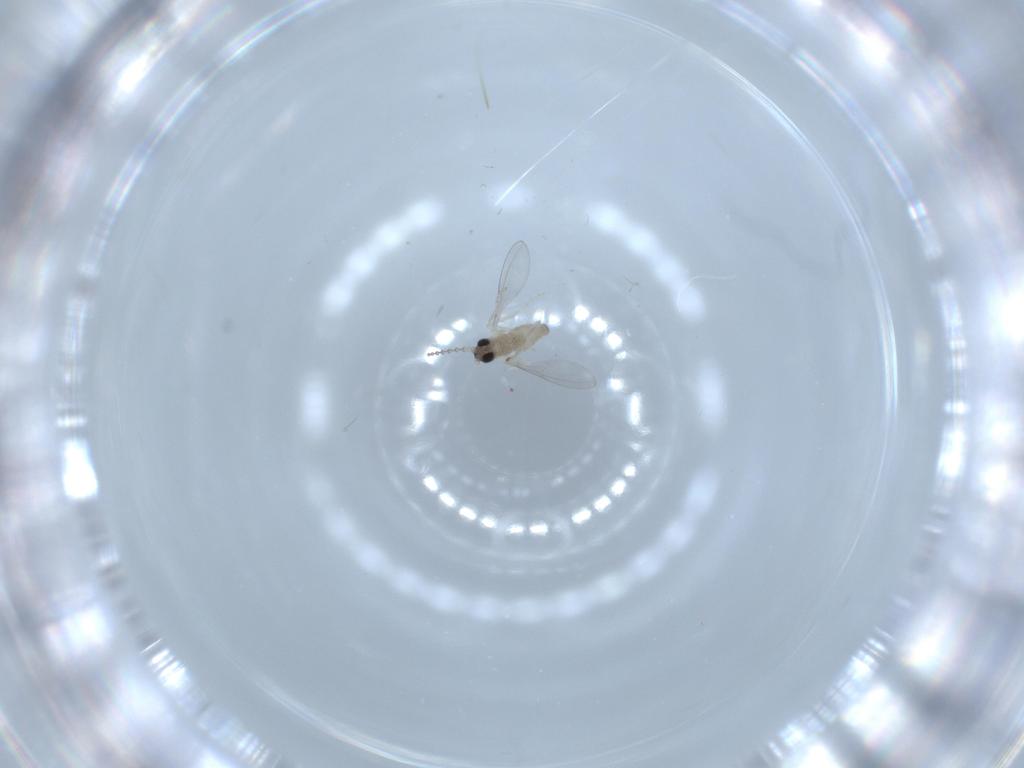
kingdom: Animalia
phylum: Arthropoda
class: Insecta
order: Diptera
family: Cecidomyiidae
